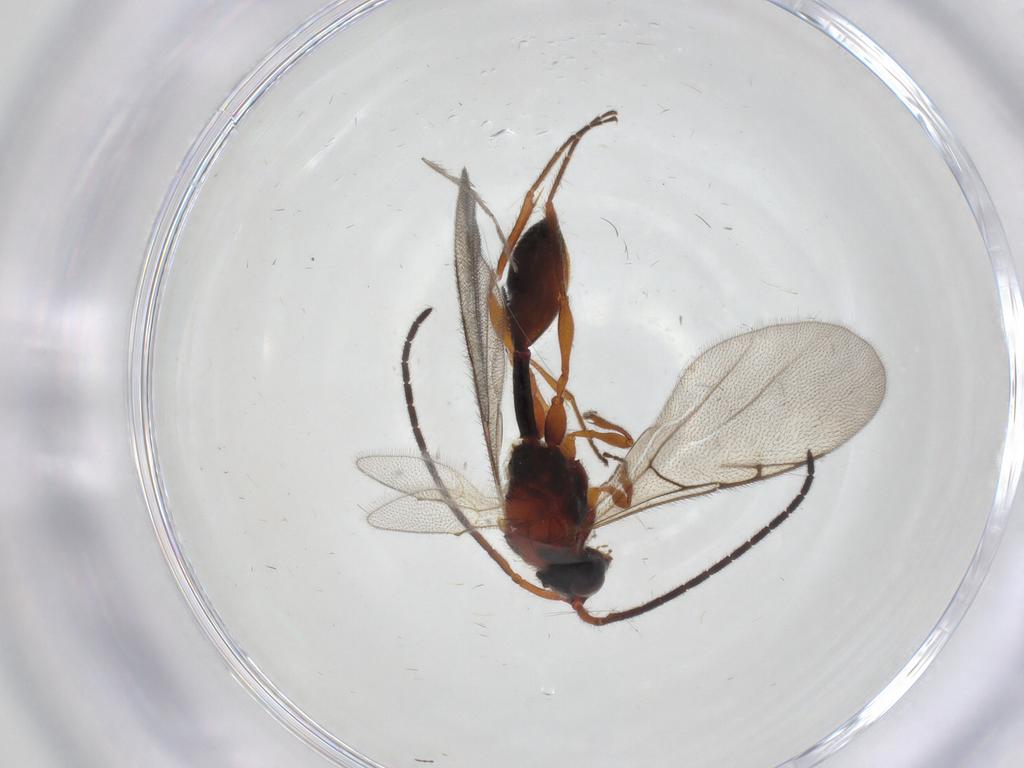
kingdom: Animalia
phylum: Arthropoda
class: Insecta
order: Hymenoptera
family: Diapriidae
